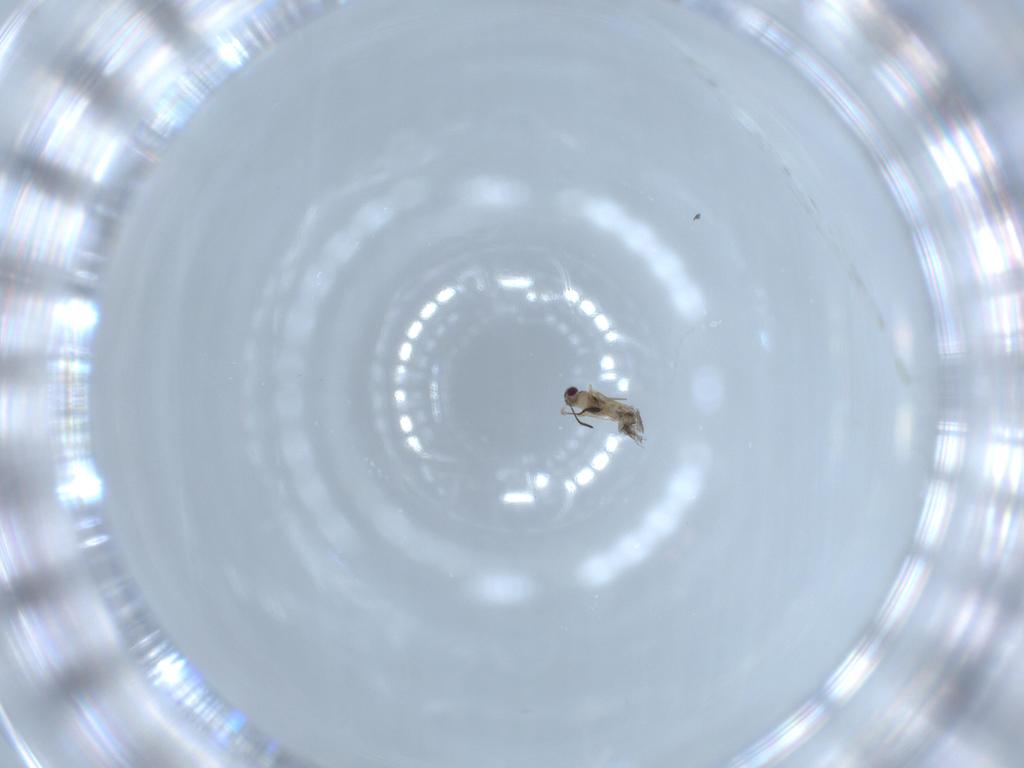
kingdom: Animalia
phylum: Arthropoda
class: Insecta
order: Hymenoptera
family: Mymaridae
